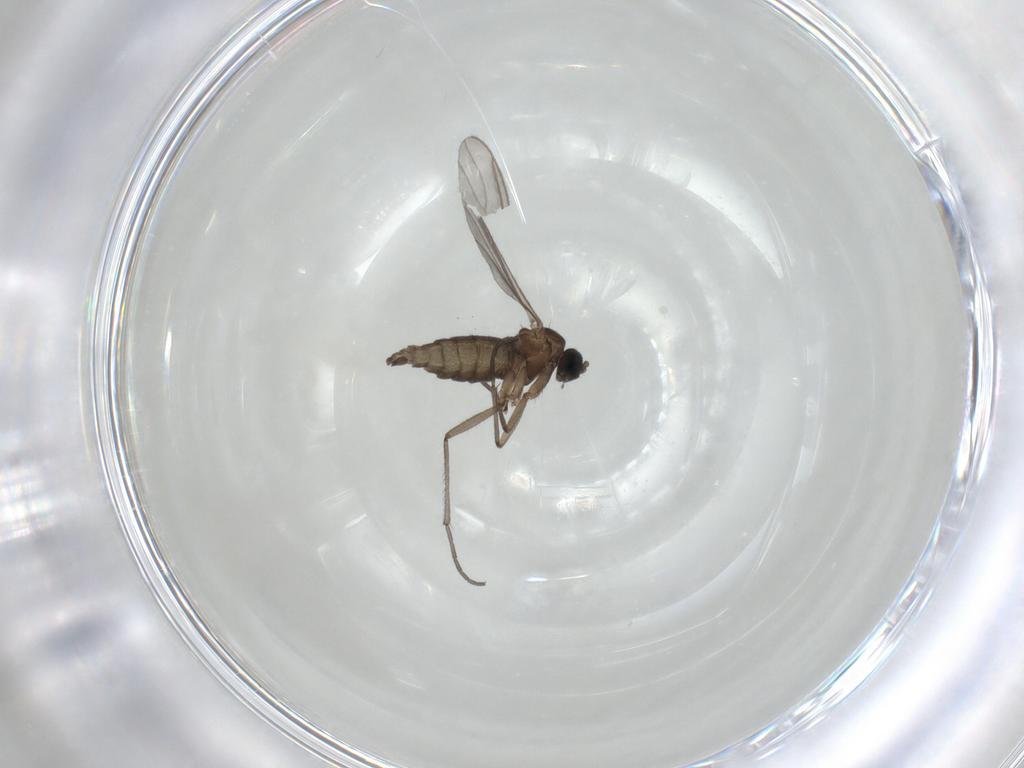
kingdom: Animalia
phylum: Arthropoda
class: Insecta
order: Diptera
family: Sciaridae
